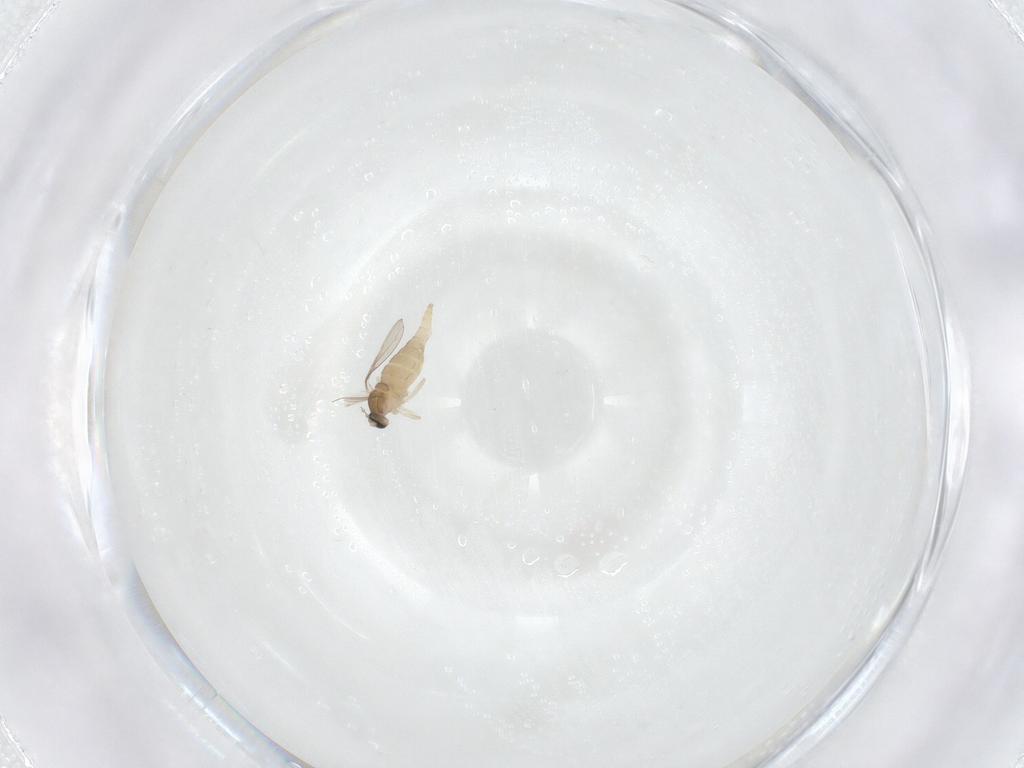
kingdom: Animalia
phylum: Arthropoda
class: Insecta
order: Diptera
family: Cecidomyiidae
